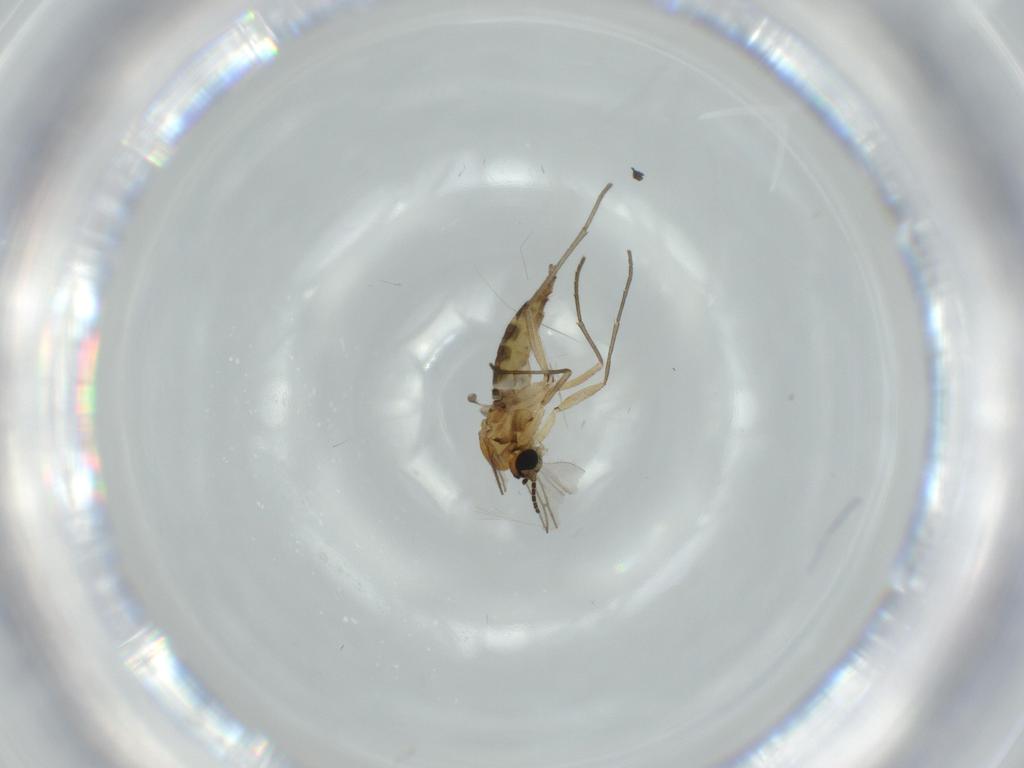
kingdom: Animalia
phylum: Arthropoda
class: Insecta
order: Diptera
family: Sciaridae
